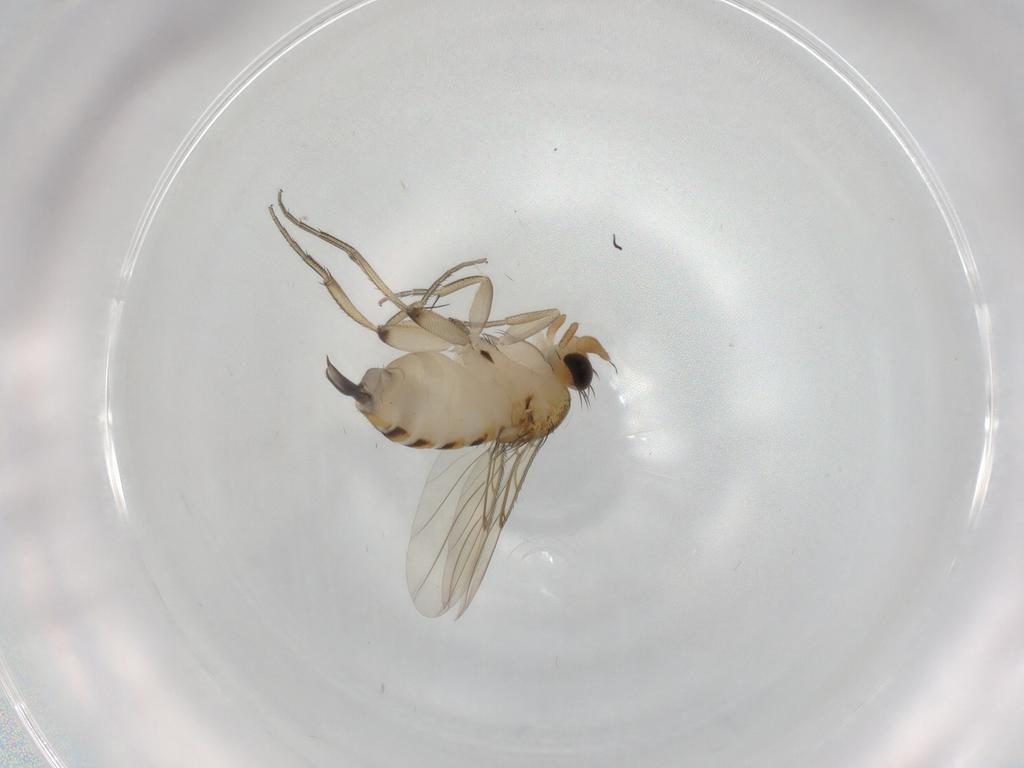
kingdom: Animalia
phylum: Arthropoda
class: Insecta
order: Diptera
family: Phoridae
